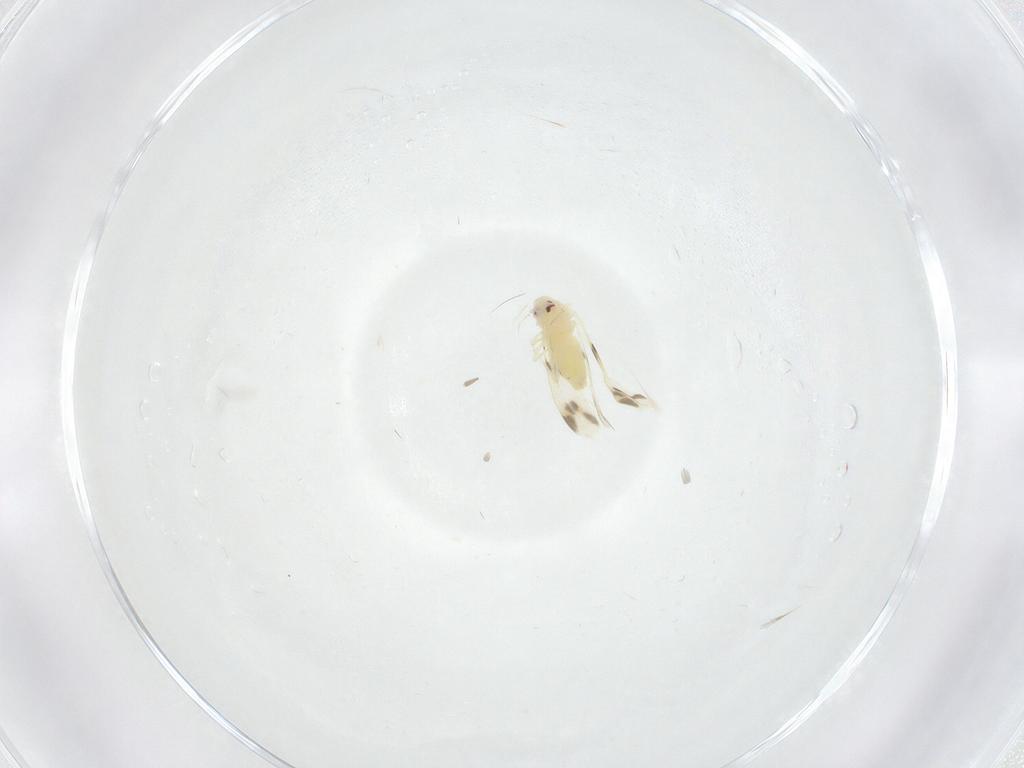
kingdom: Animalia
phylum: Arthropoda
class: Insecta
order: Hemiptera
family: Aleyrodidae
